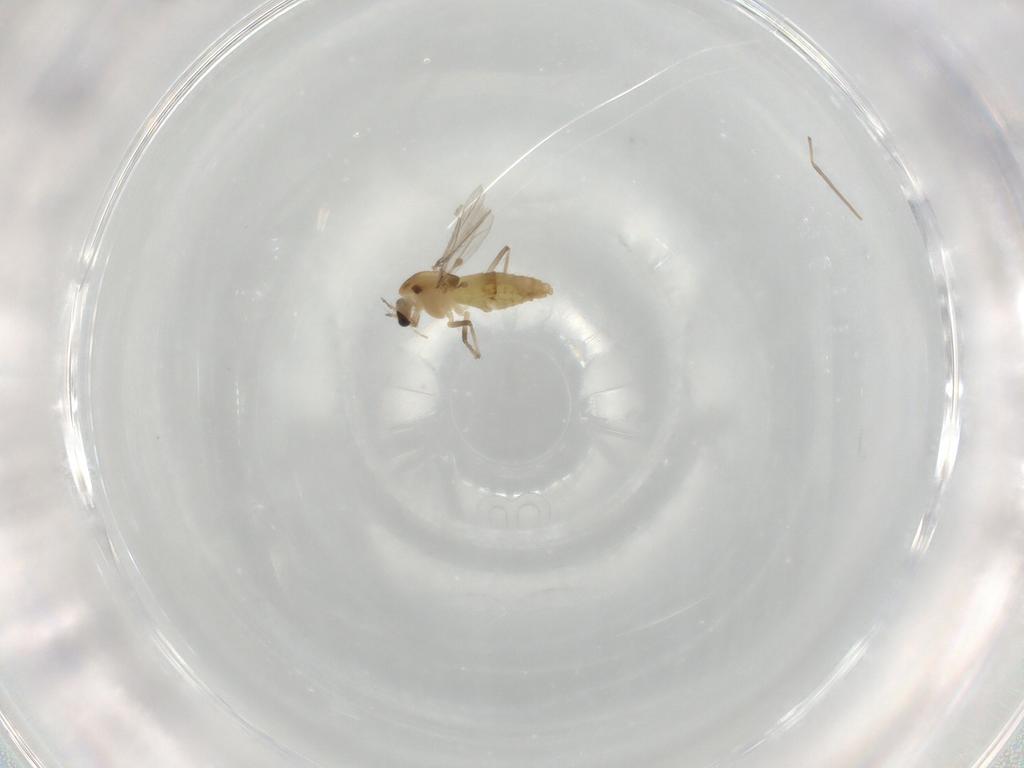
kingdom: Animalia
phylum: Arthropoda
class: Insecta
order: Diptera
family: Chironomidae
